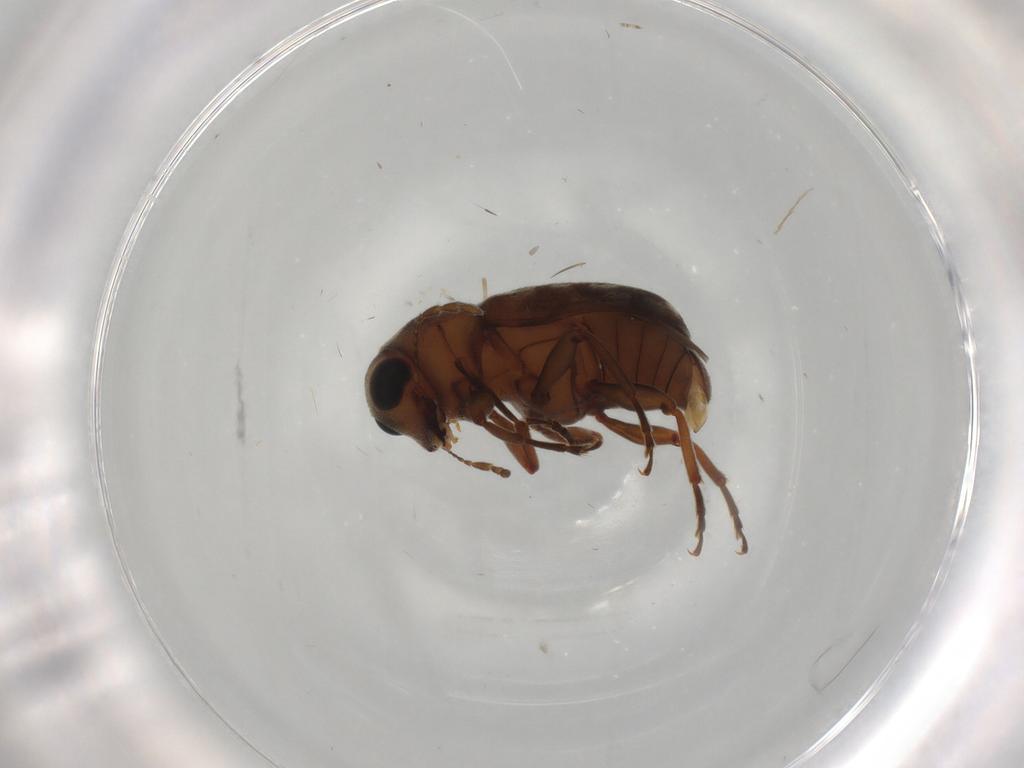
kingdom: Animalia
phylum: Arthropoda
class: Insecta
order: Coleoptera
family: Anthribidae
